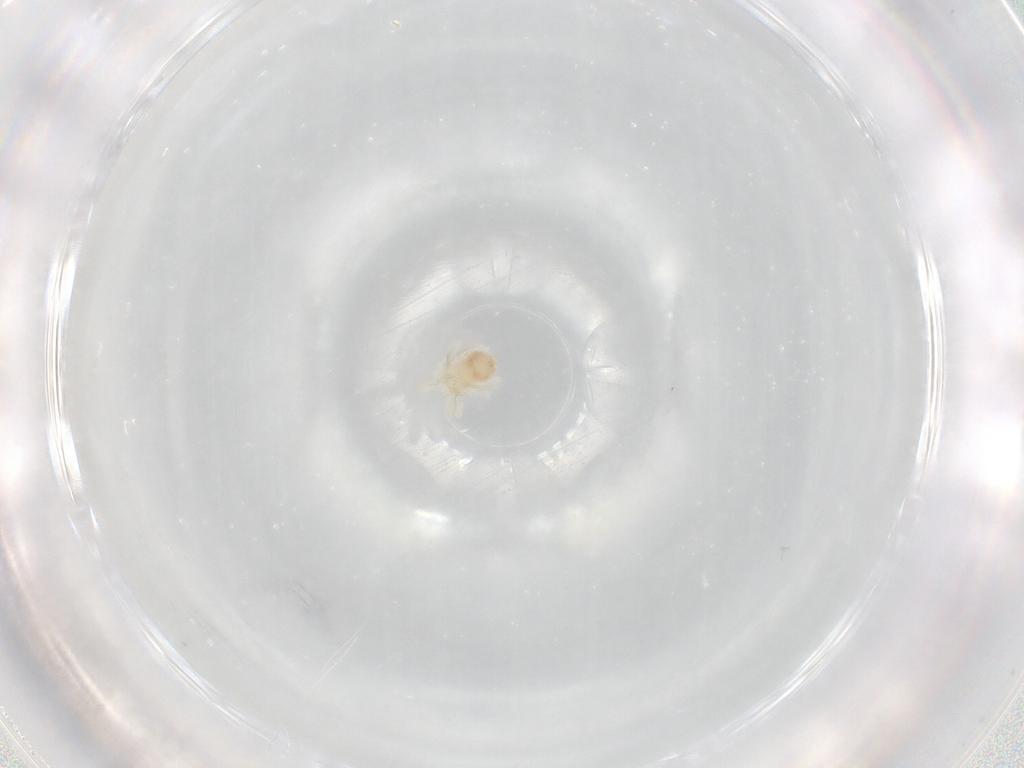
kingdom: Animalia
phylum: Arthropoda
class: Arachnida
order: Trombidiformes
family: Anystidae
